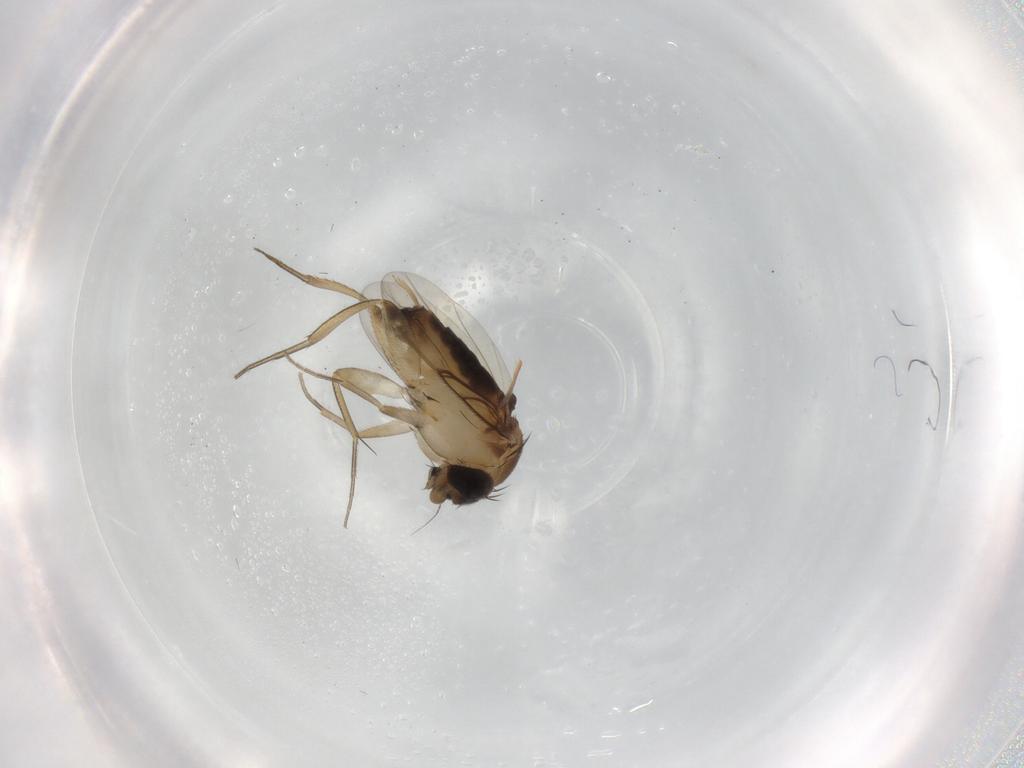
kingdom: Animalia
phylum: Arthropoda
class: Insecta
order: Diptera
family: Phoridae
